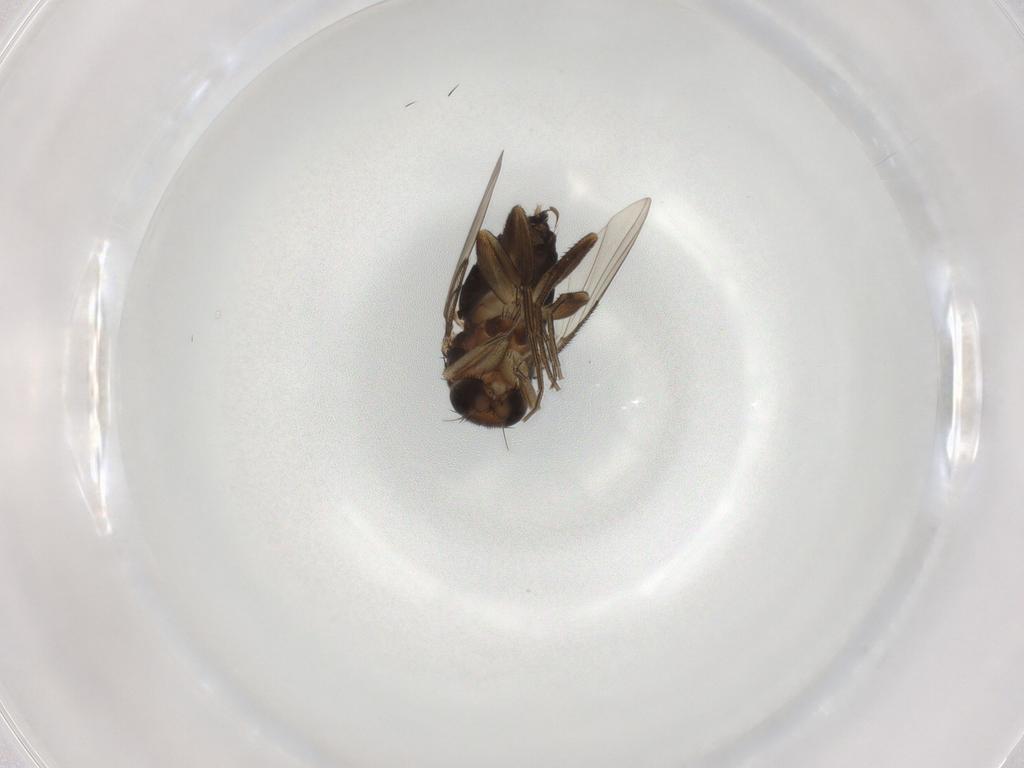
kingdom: Animalia
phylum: Arthropoda
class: Insecta
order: Diptera
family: Phoridae
